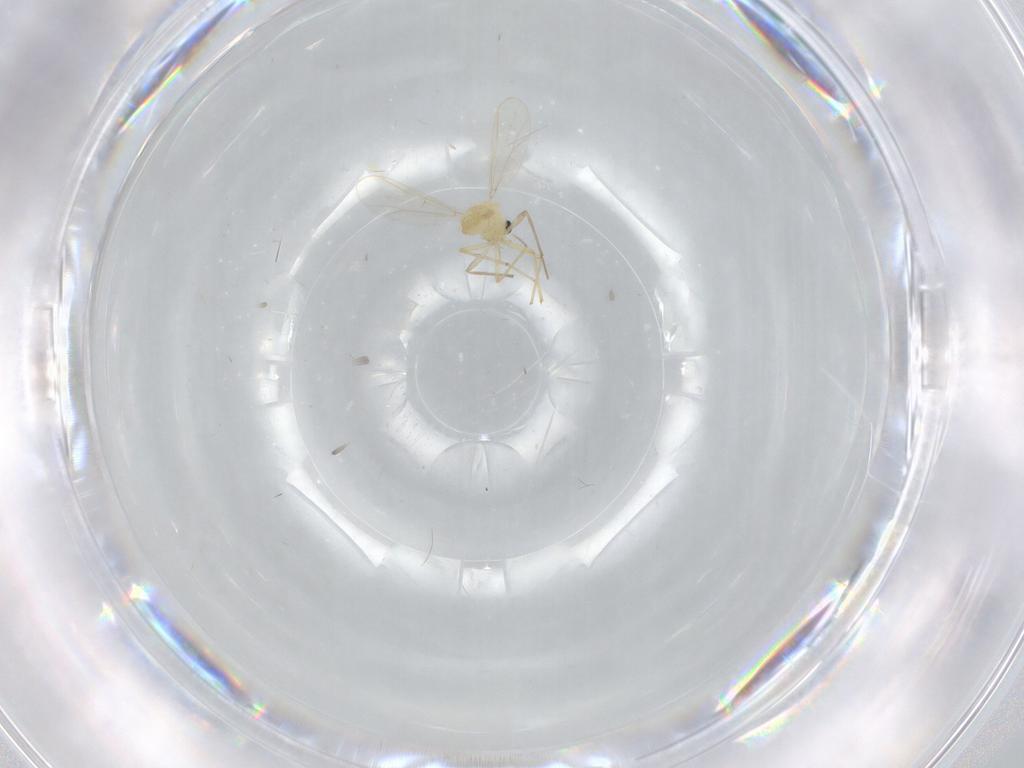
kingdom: Animalia
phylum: Arthropoda
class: Insecta
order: Diptera
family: Chironomidae
